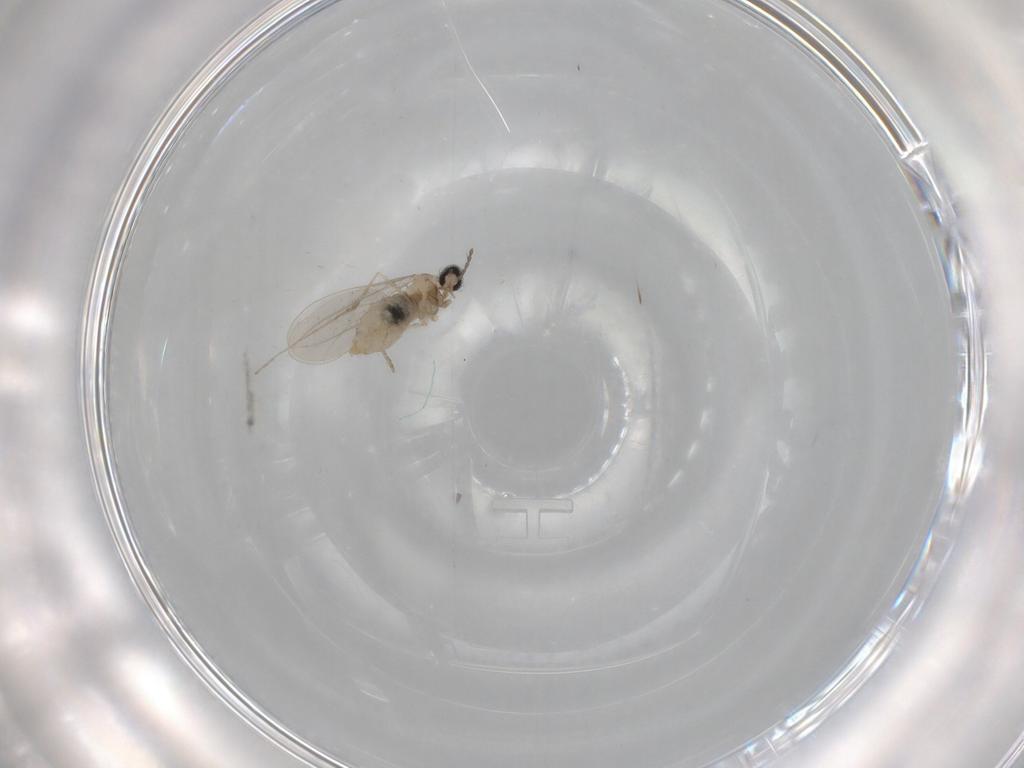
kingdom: Animalia
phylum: Arthropoda
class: Insecta
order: Diptera
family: Cecidomyiidae
